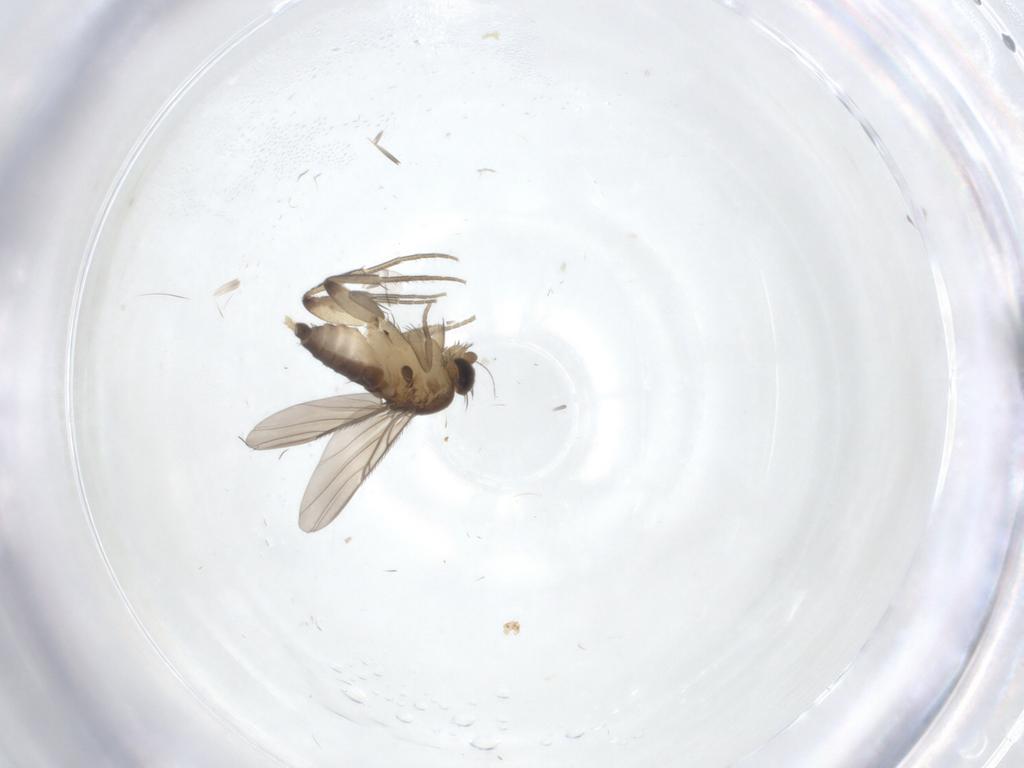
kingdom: Animalia
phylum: Arthropoda
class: Insecta
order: Diptera
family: Phoridae
